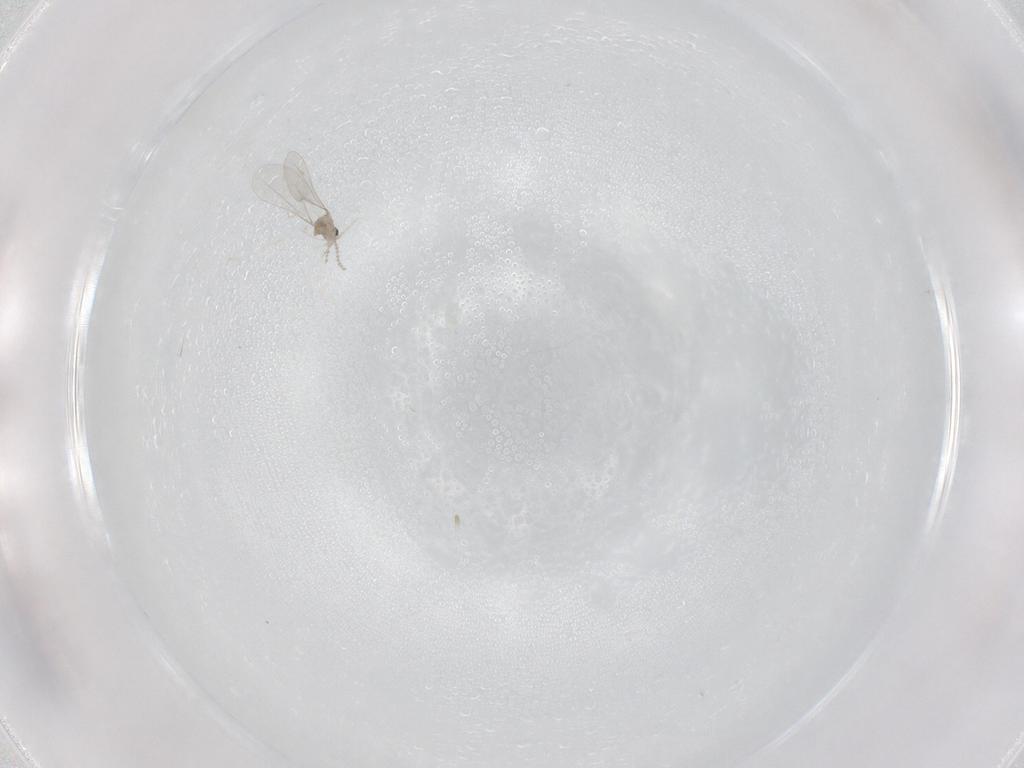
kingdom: Animalia
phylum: Arthropoda
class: Insecta
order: Diptera
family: Cecidomyiidae
